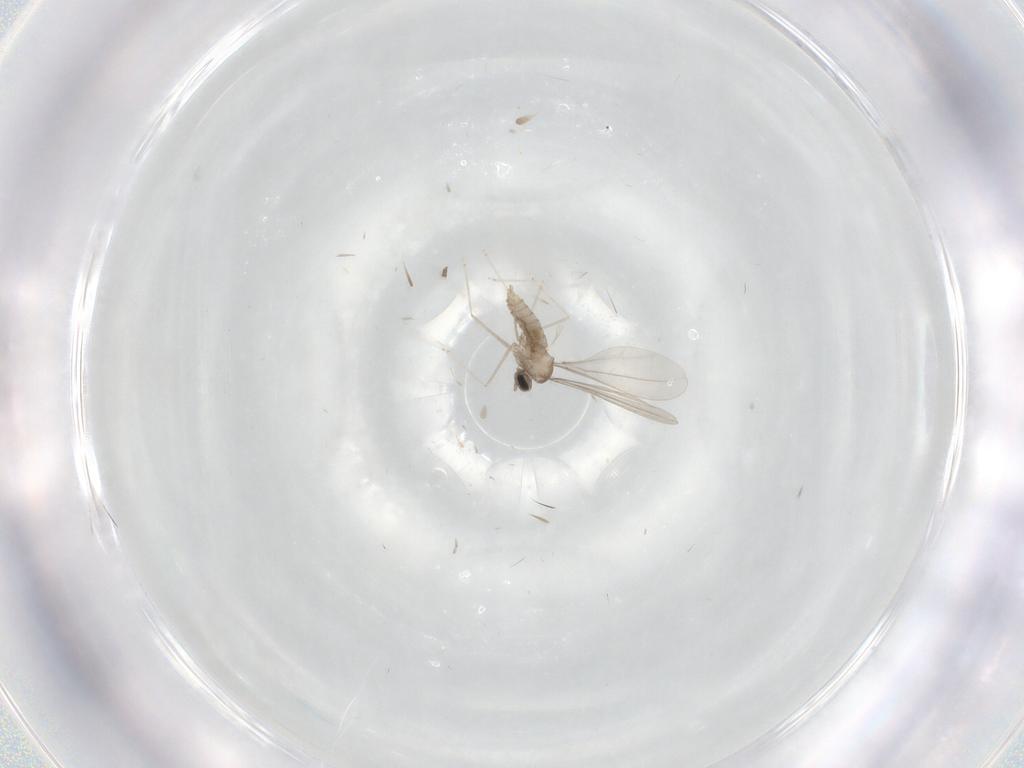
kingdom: Animalia
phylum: Arthropoda
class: Insecta
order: Diptera
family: Cecidomyiidae
